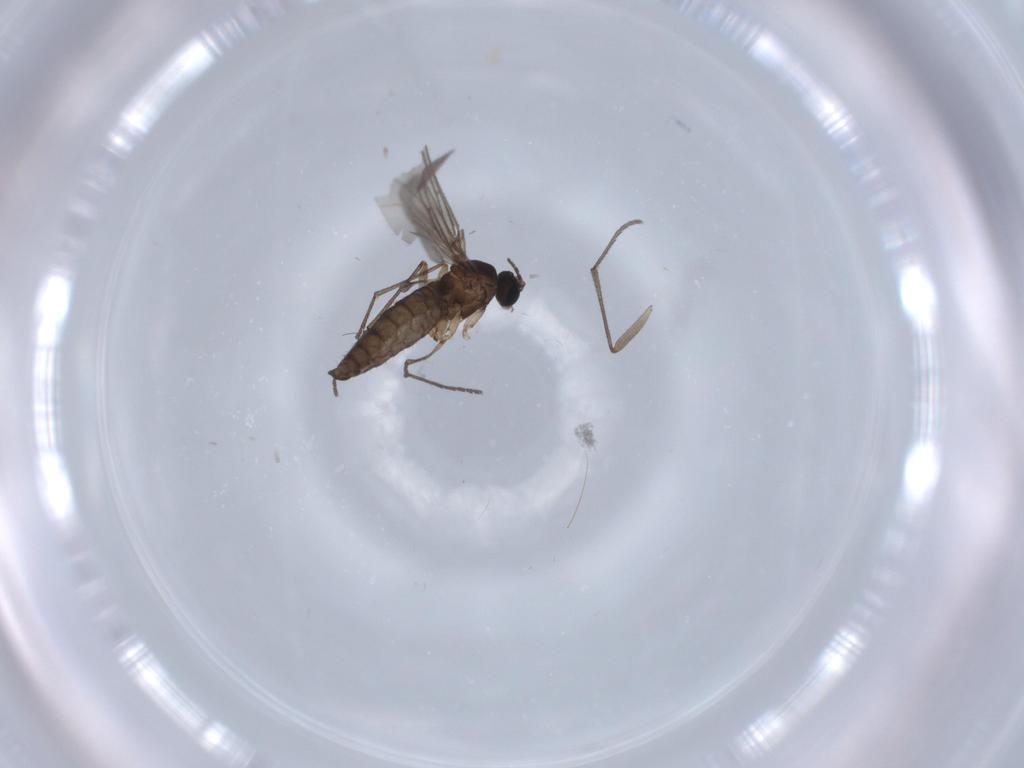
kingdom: Animalia
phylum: Arthropoda
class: Insecta
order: Diptera
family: Sciaridae
